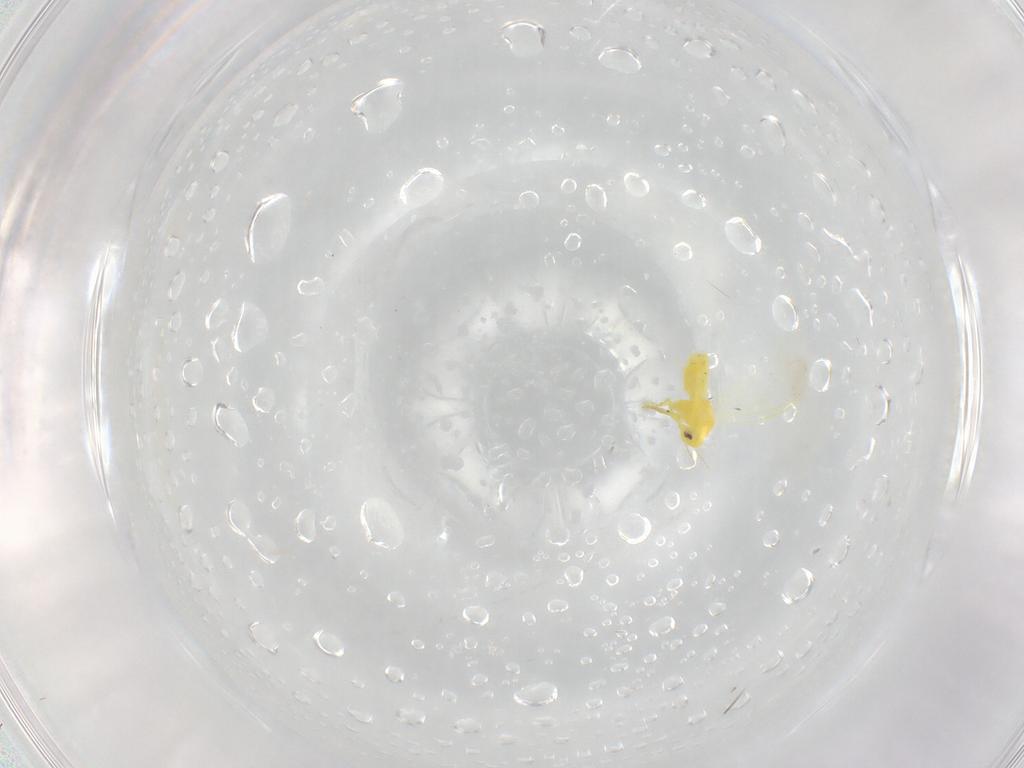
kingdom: Animalia
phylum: Arthropoda
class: Insecta
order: Hemiptera
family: Aleyrodidae
